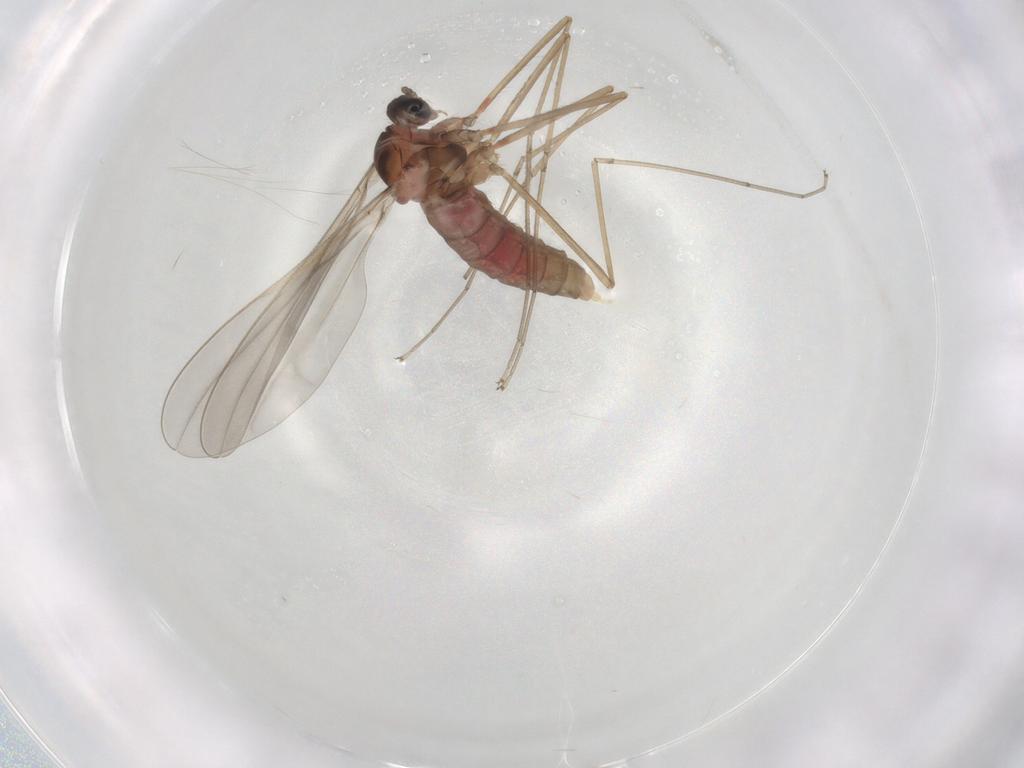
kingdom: Animalia
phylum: Arthropoda
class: Insecta
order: Diptera
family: Cecidomyiidae
